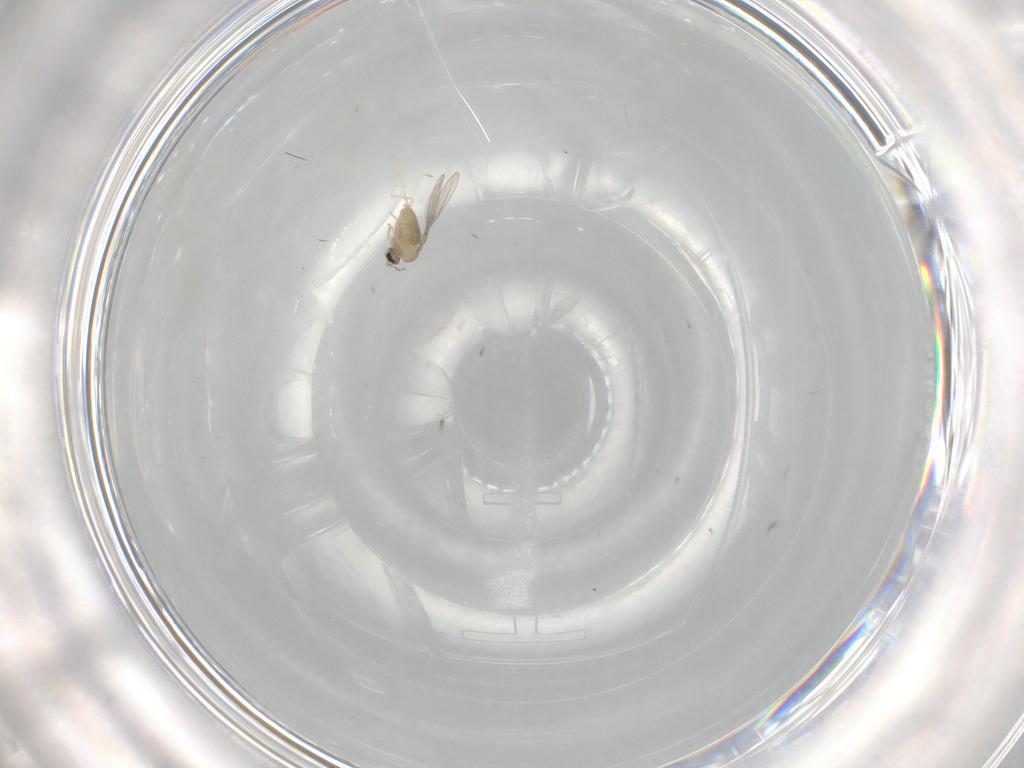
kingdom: Animalia
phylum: Arthropoda
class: Insecta
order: Diptera
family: Cecidomyiidae
